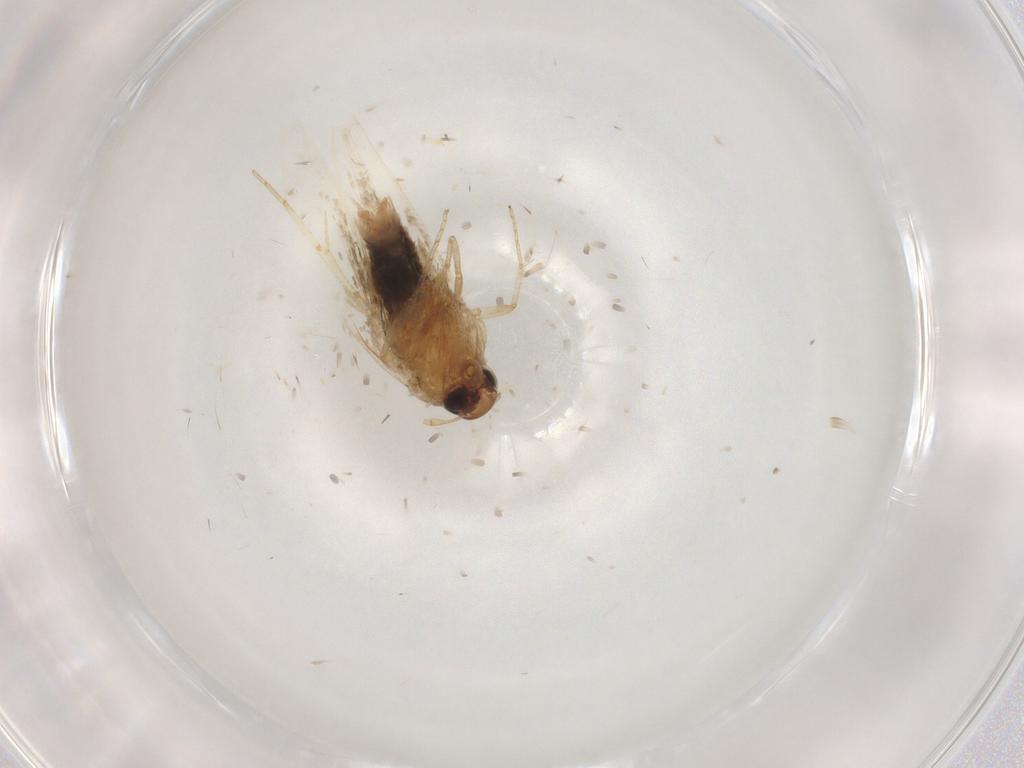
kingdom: Animalia
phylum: Arthropoda
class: Insecta
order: Lepidoptera
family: Cosmopterigidae
